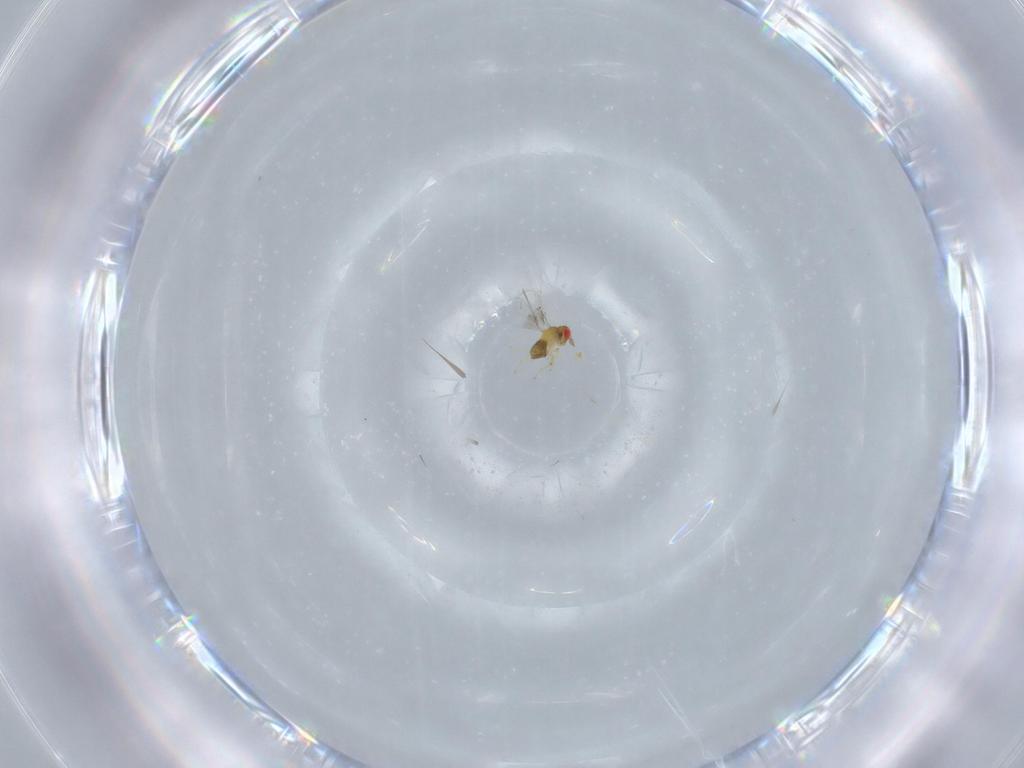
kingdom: Animalia
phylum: Arthropoda
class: Insecta
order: Hymenoptera
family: Trichogrammatidae
